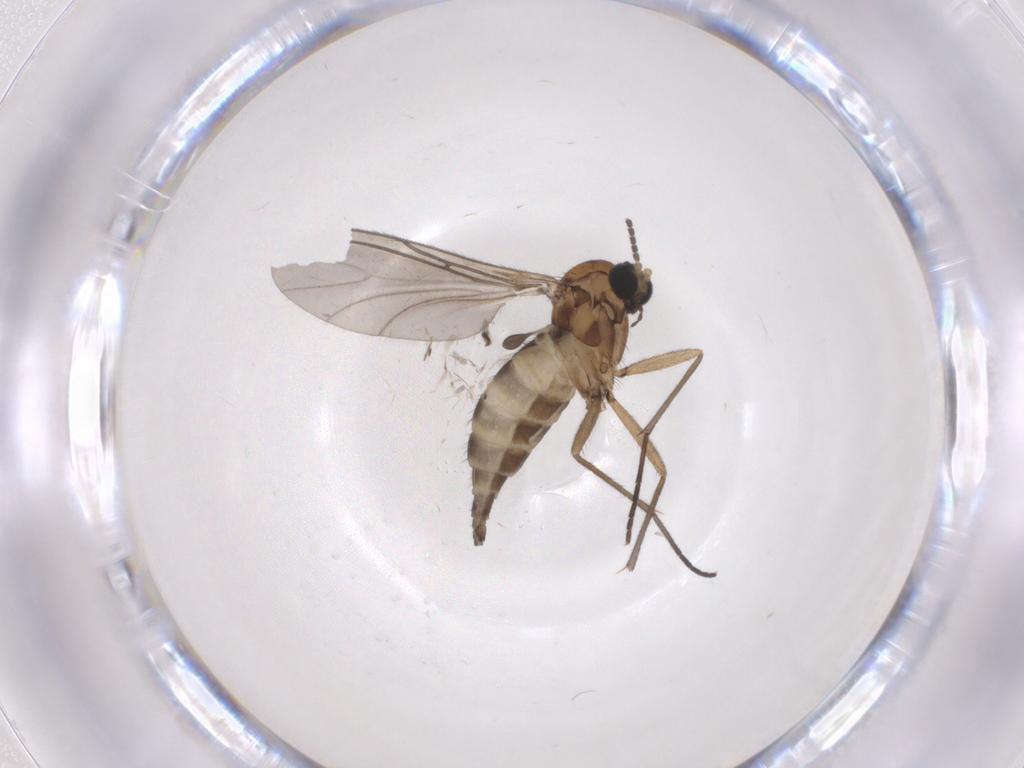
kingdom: Animalia
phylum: Arthropoda
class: Insecta
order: Diptera
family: Sciaridae
